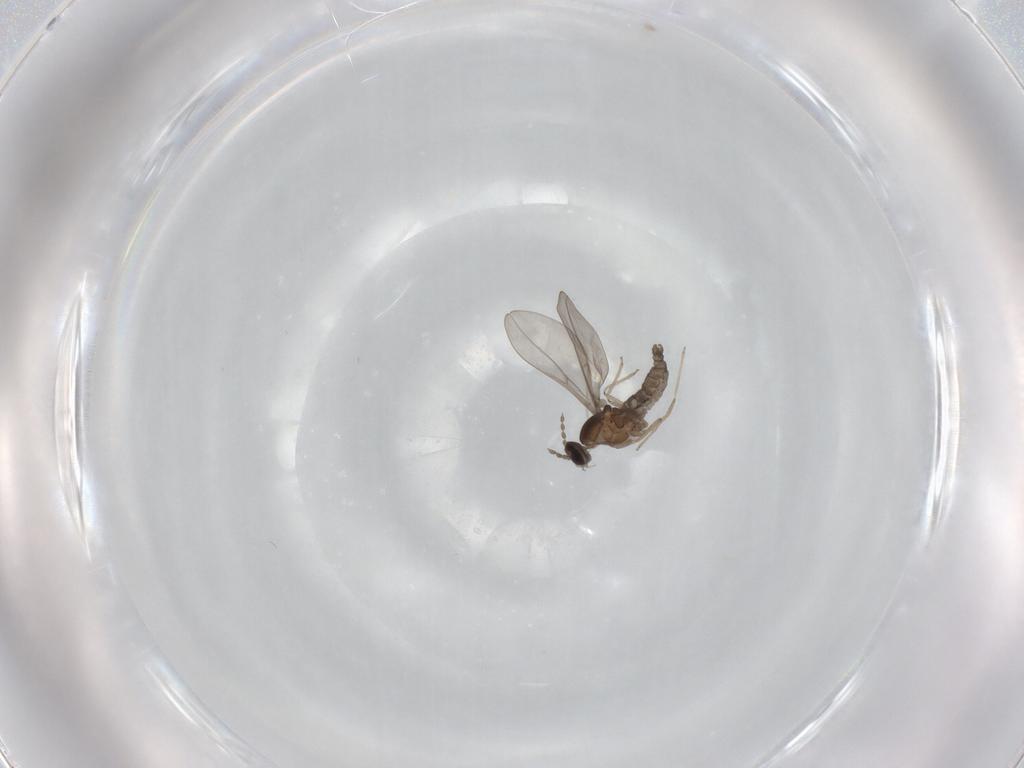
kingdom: Animalia
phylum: Arthropoda
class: Insecta
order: Diptera
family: Cecidomyiidae
